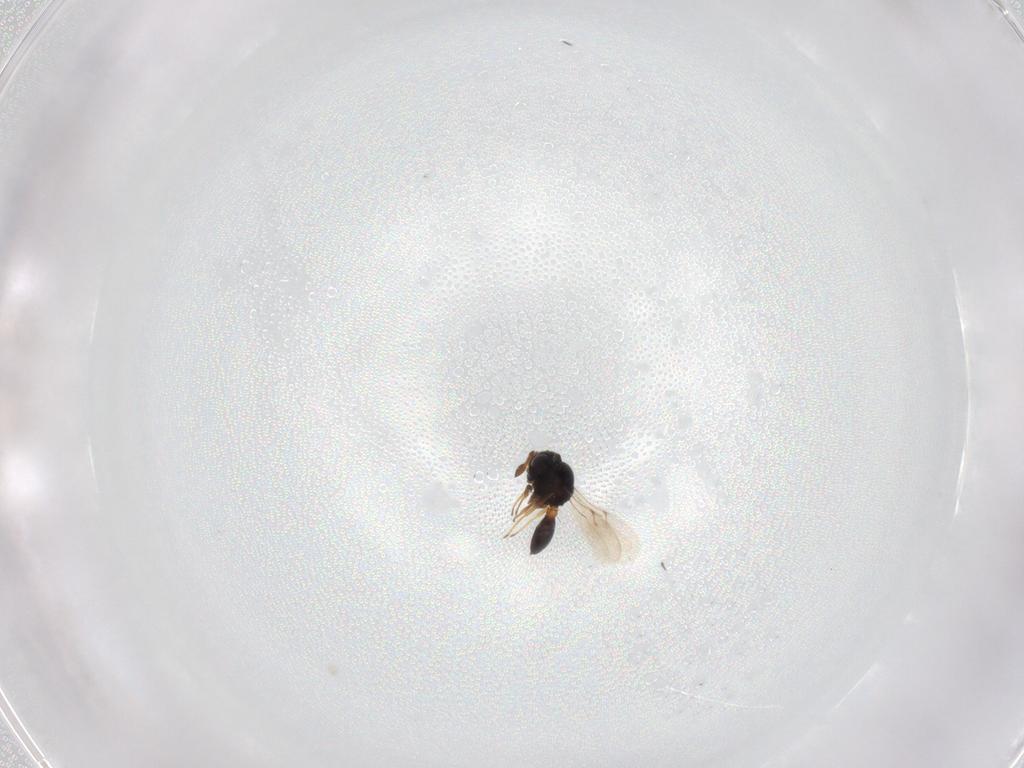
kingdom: Animalia
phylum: Arthropoda
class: Insecta
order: Hymenoptera
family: Scelionidae
